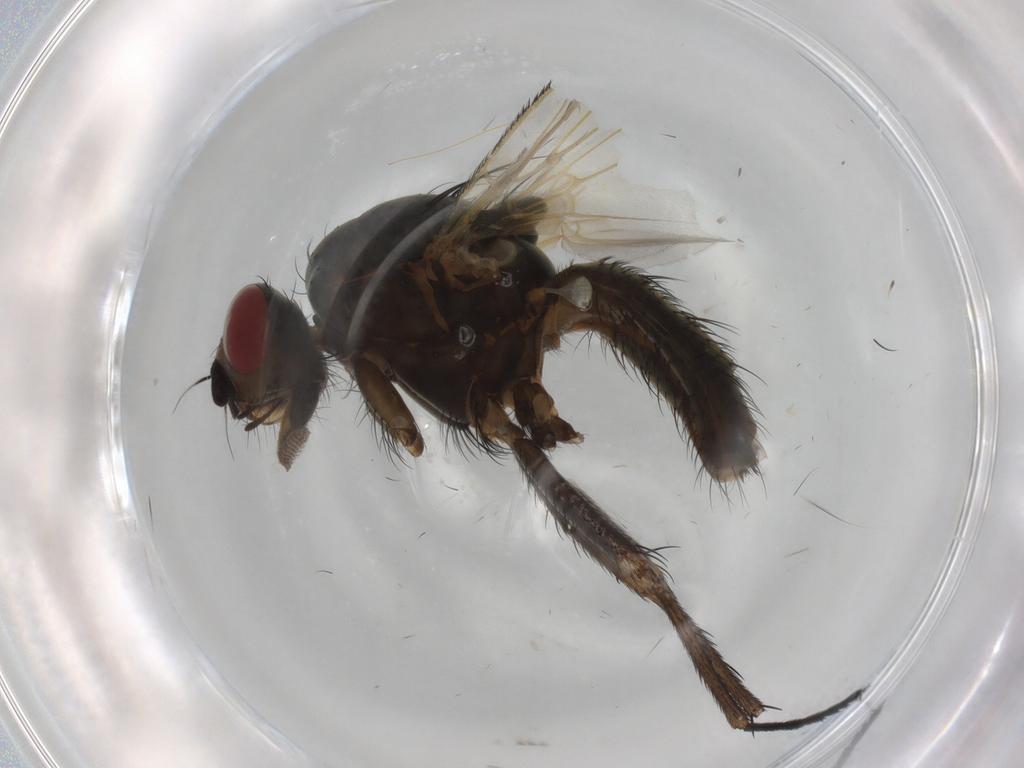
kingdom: Animalia
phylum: Arthropoda
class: Insecta
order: Diptera
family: Anthomyiidae
